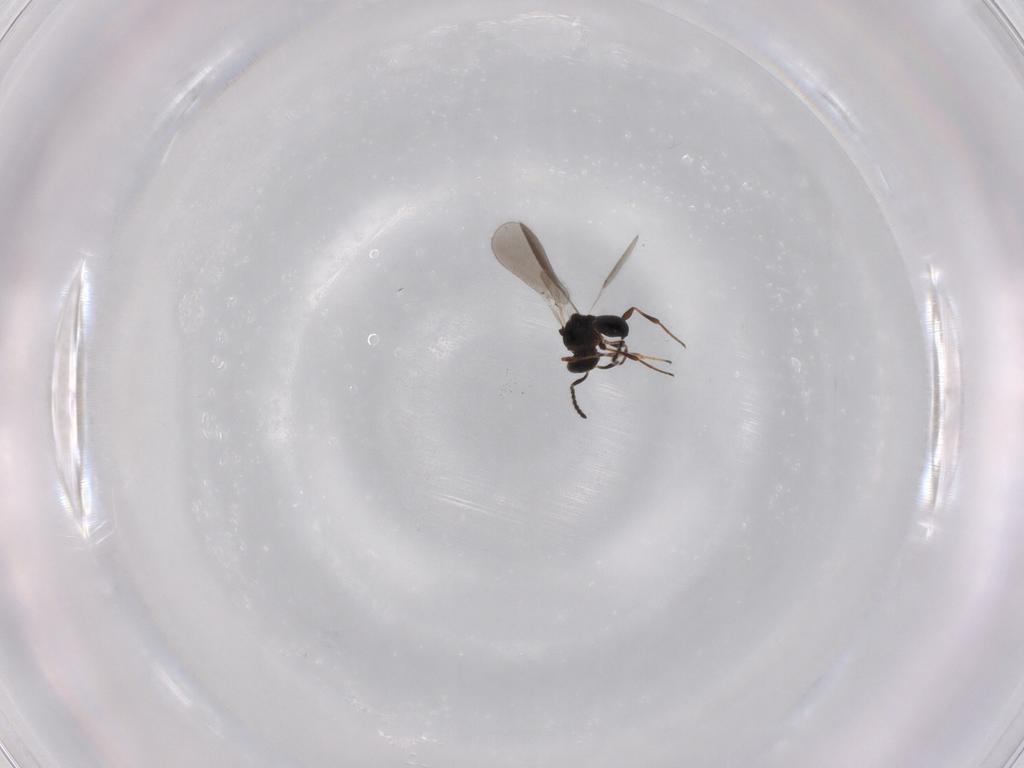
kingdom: Animalia
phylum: Arthropoda
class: Insecta
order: Hymenoptera
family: Platygastridae
